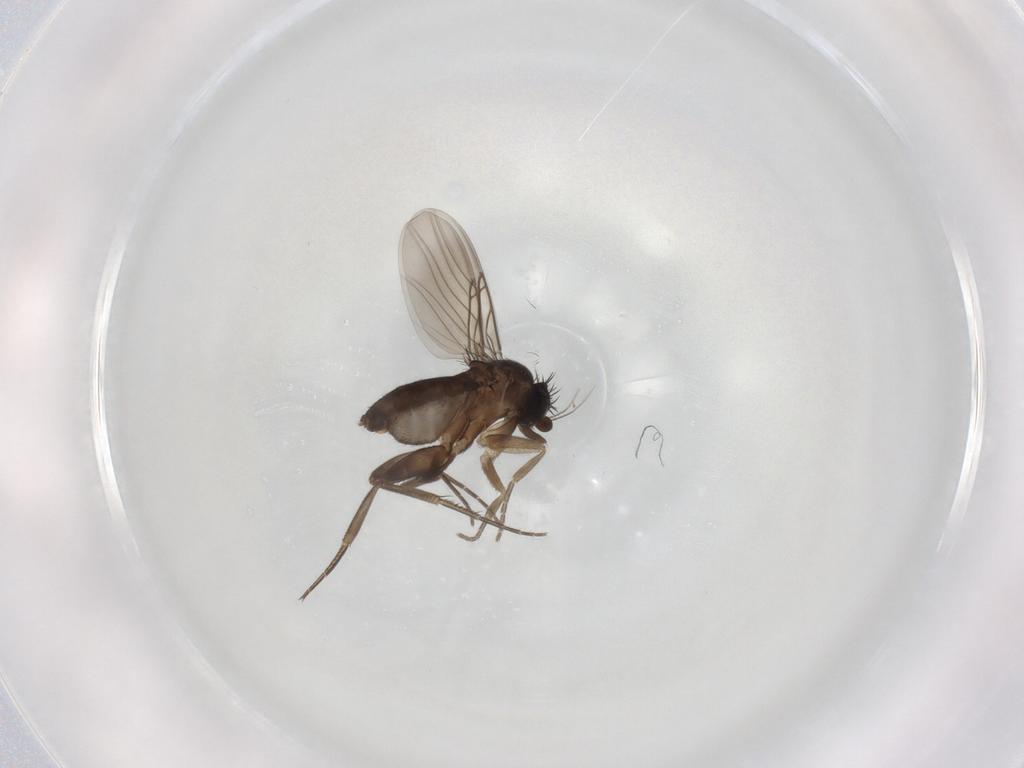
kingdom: Animalia
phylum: Arthropoda
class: Insecta
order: Diptera
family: Phoridae
